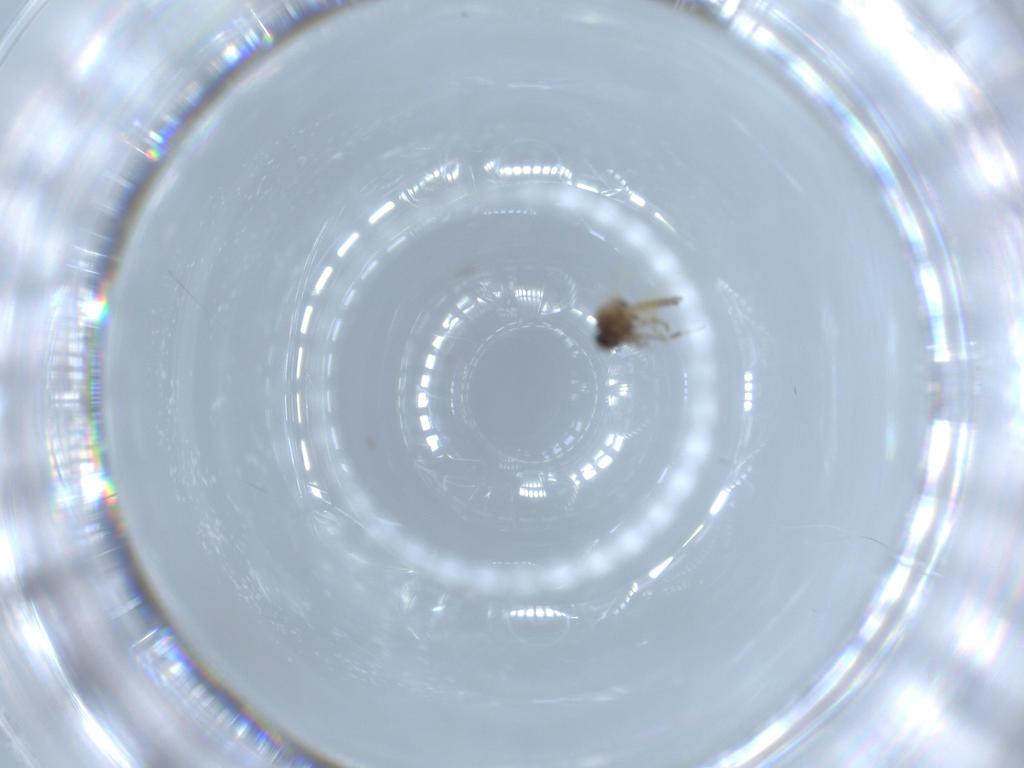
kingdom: Animalia
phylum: Arthropoda
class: Insecta
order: Diptera
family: Ceratopogonidae
